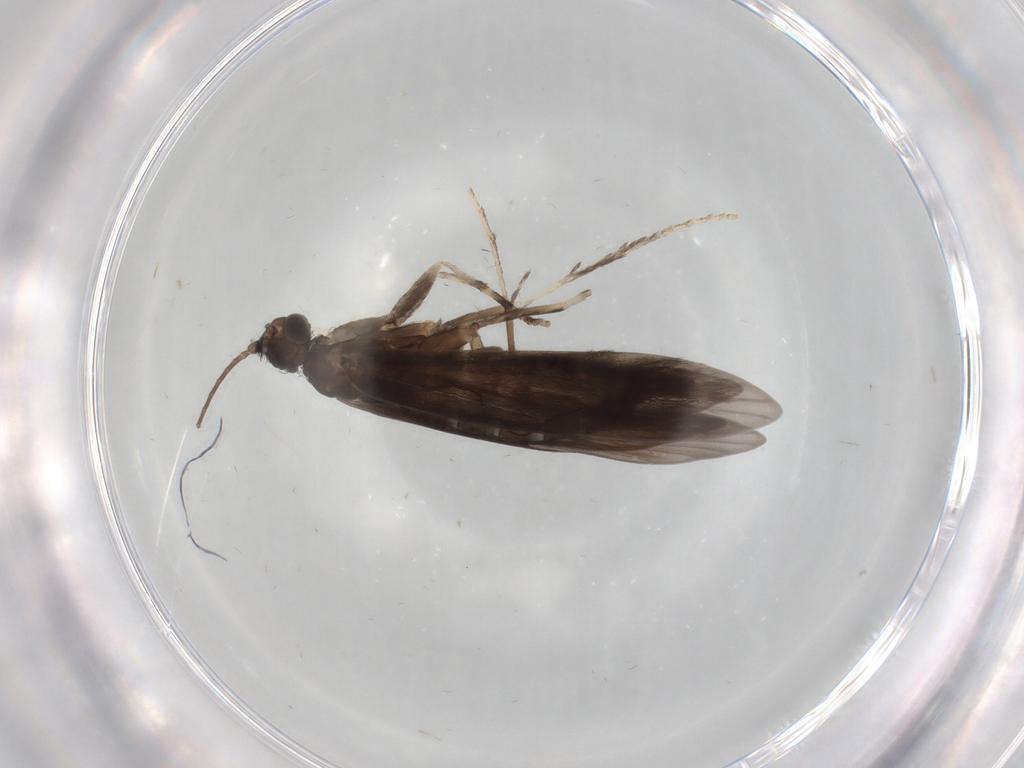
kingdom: Animalia
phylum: Arthropoda
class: Insecta
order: Trichoptera
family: Xiphocentronidae
